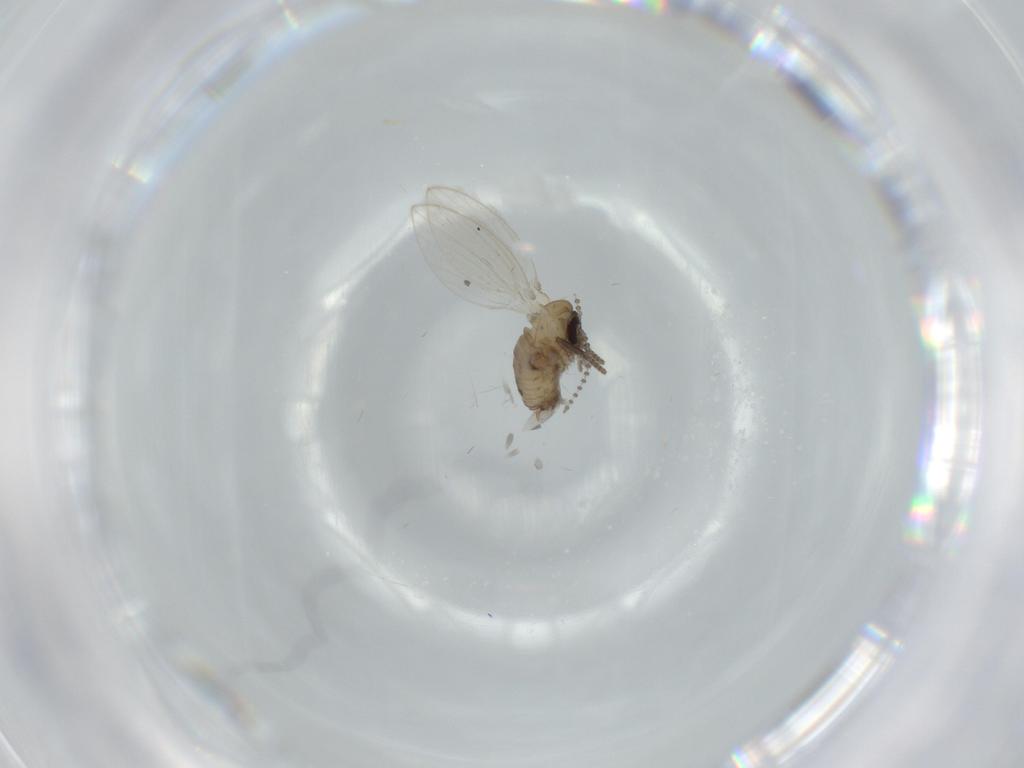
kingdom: Animalia
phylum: Arthropoda
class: Insecta
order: Diptera
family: Psychodidae
